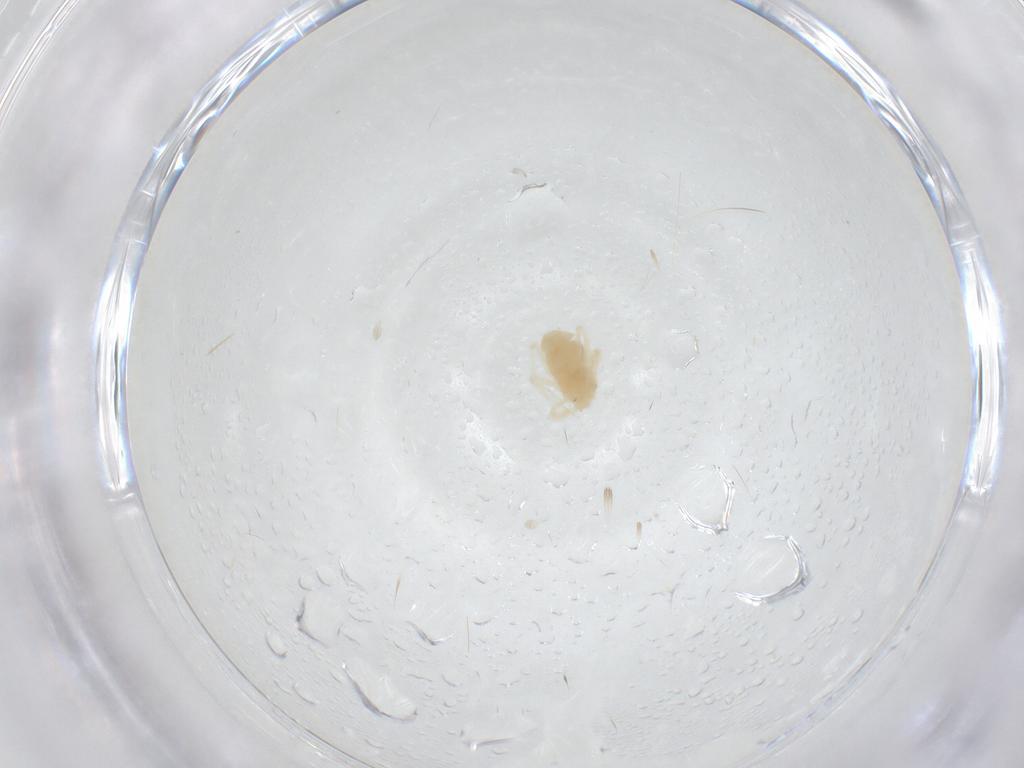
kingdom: Animalia
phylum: Arthropoda
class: Arachnida
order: Trombidiformes
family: Anystidae
